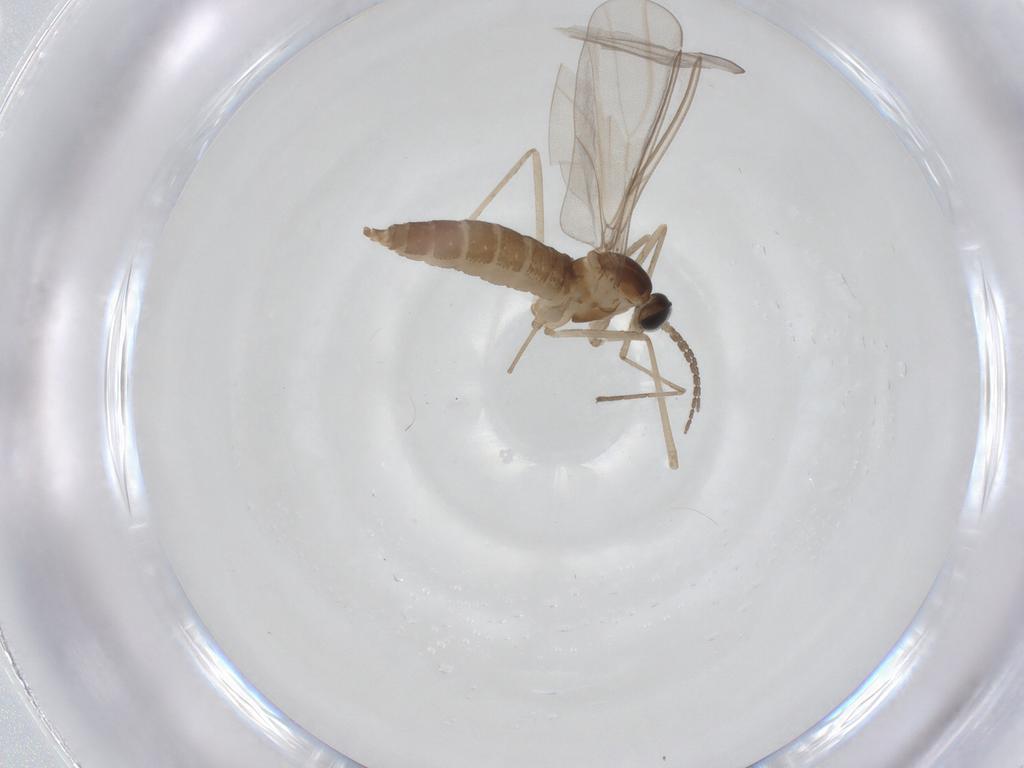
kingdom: Animalia
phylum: Arthropoda
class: Insecta
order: Diptera
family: Cecidomyiidae
